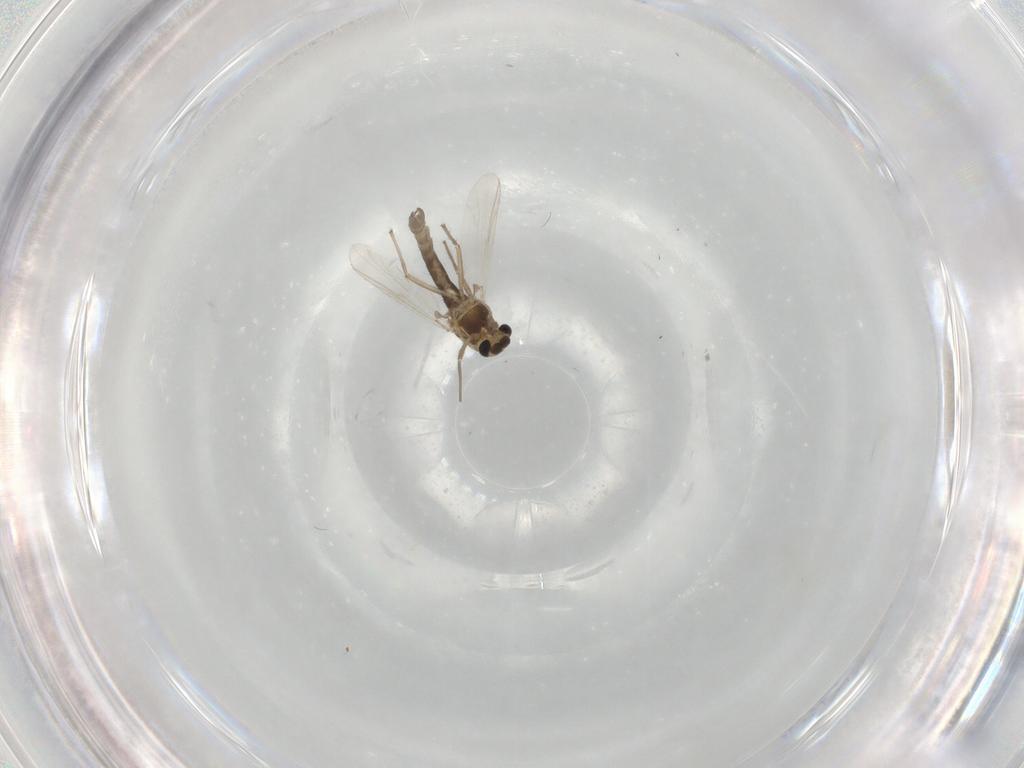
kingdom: Animalia
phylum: Arthropoda
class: Insecta
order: Diptera
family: Chironomidae
